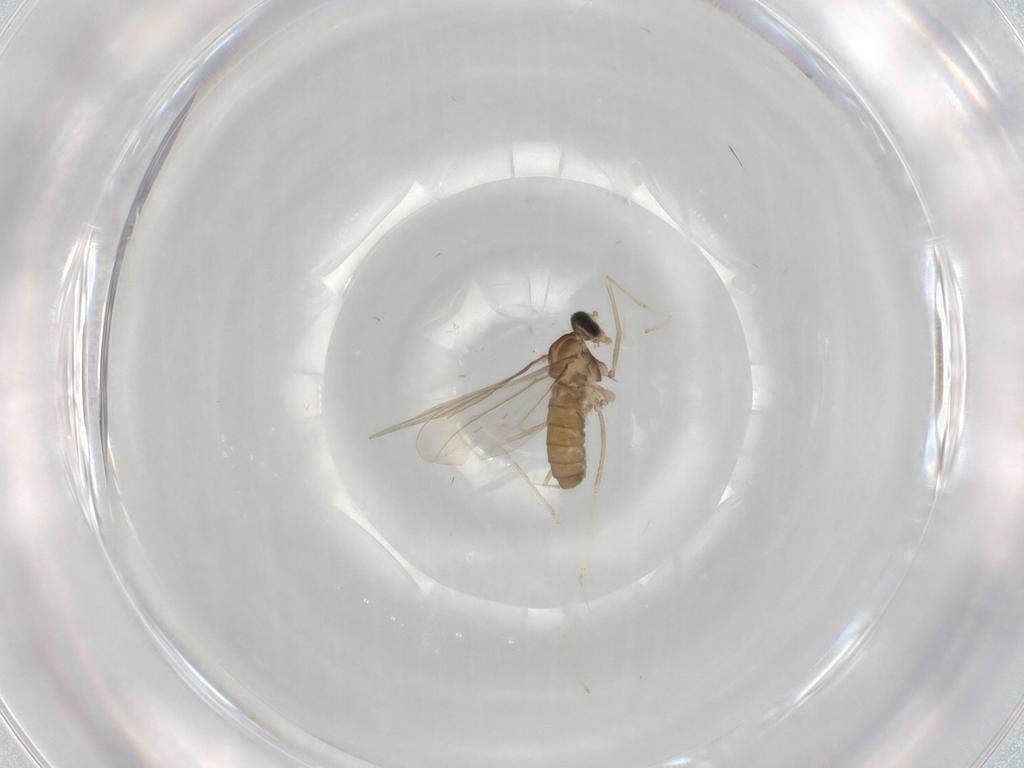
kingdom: Animalia
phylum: Arthropoda
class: Insecta
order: Diptera
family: Cecidomyiidae
